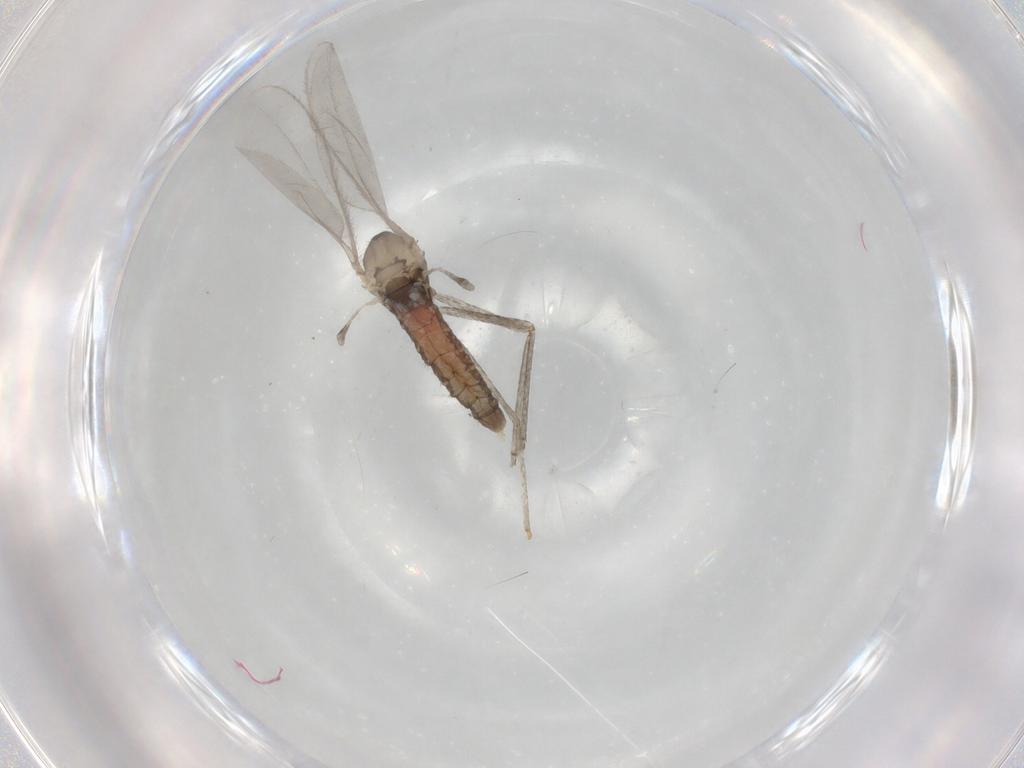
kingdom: Animalia
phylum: Arthropoda
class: Insecta
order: Diptera
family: Cecidomyiidae
